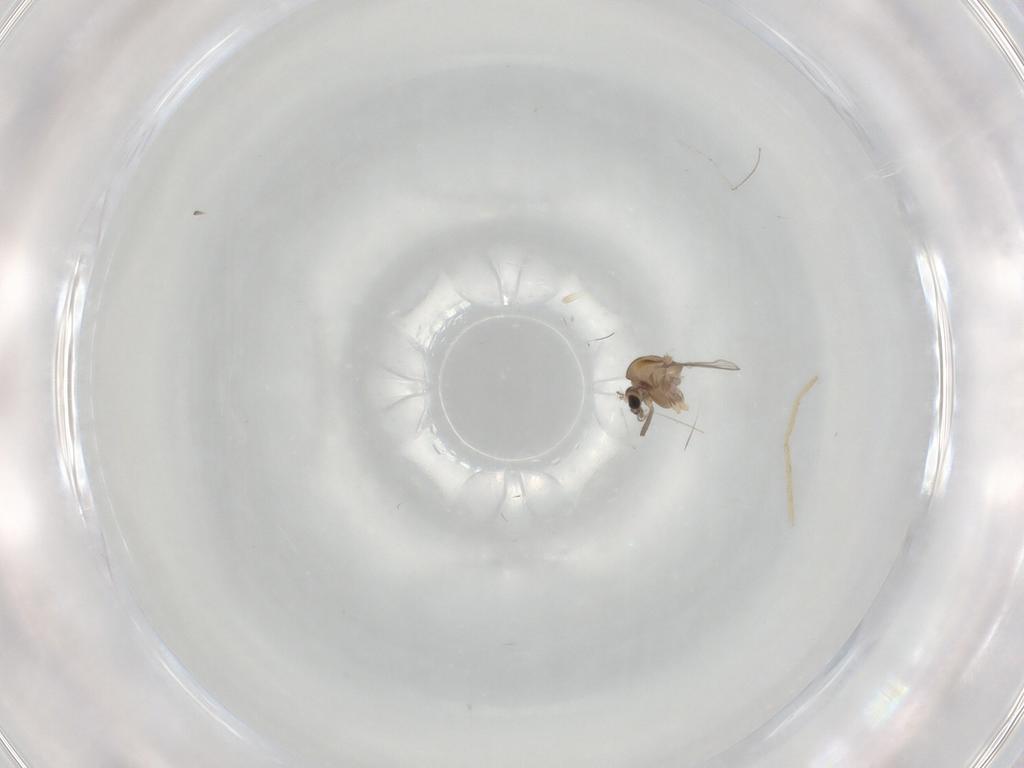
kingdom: Animalia
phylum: Arthropoda
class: Insecta
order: Diptera
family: Chironomidae
